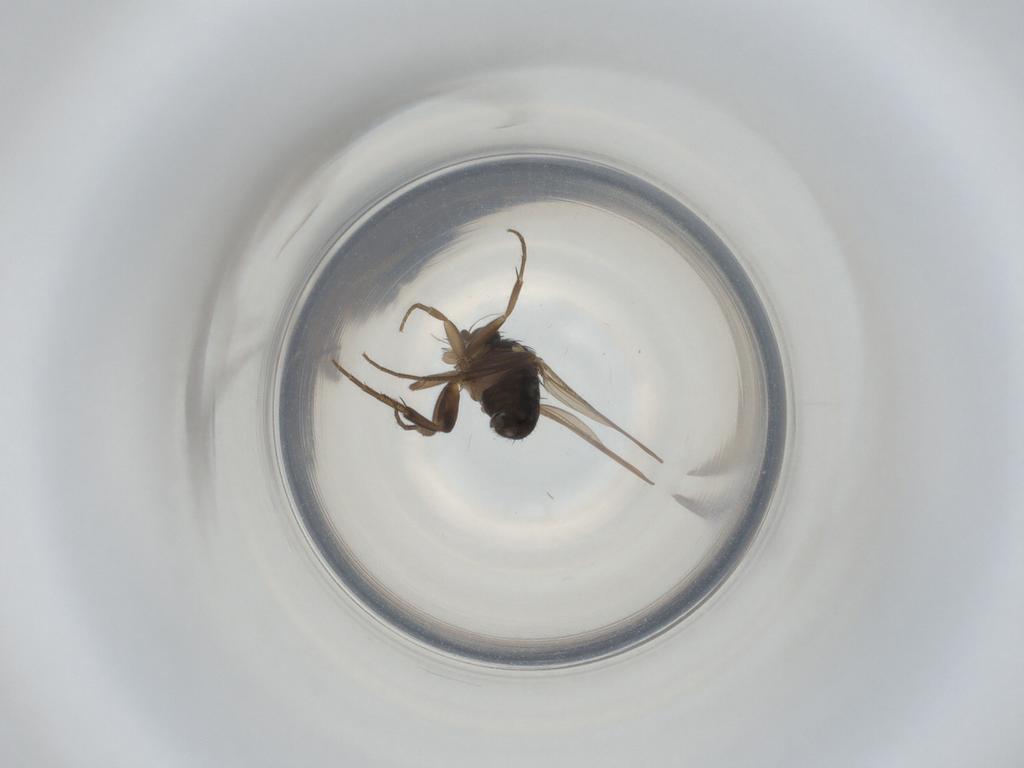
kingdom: Animalia
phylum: Arthropoda
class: Insecta
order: Diptera
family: Phoridae
